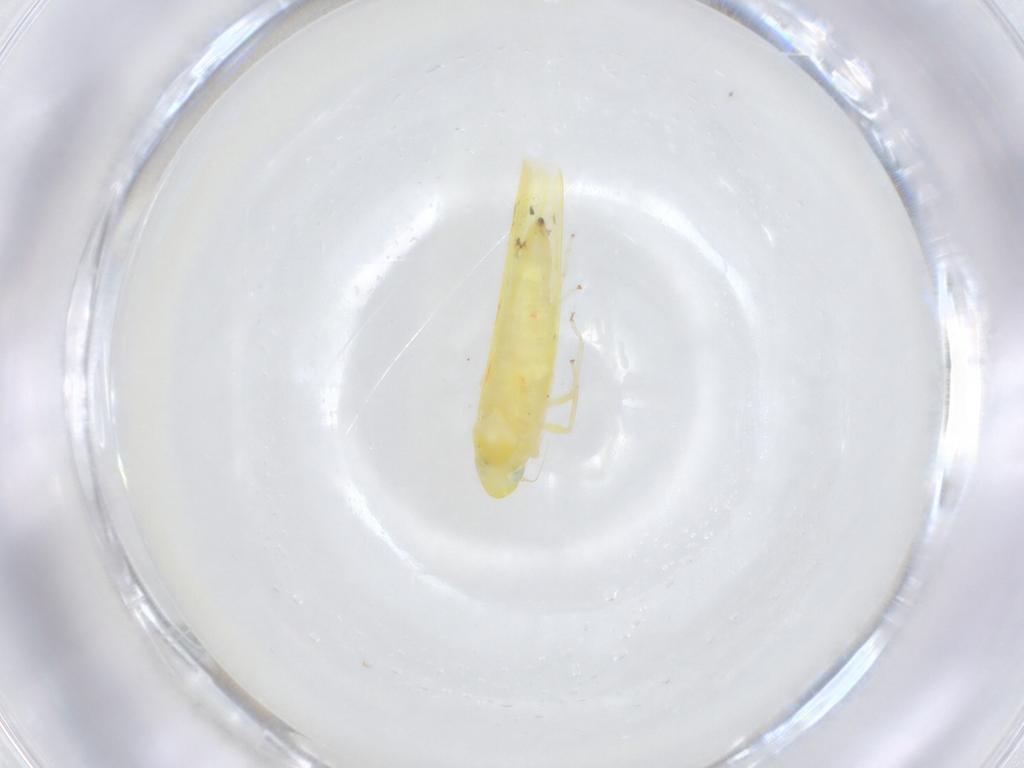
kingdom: Animalia
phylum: Arthropoda
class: Insecta
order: Hemiptera
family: Cicadellidae
